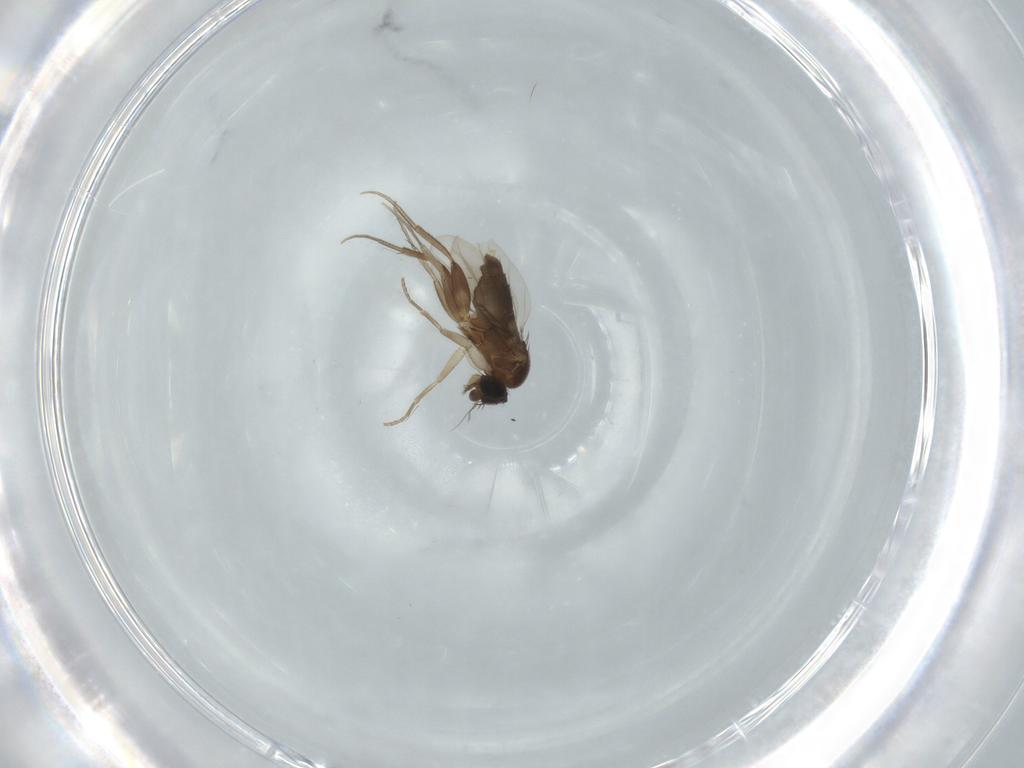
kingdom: Animalia
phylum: Arthropoda
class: Insecta
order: Diptera
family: Phoridae
